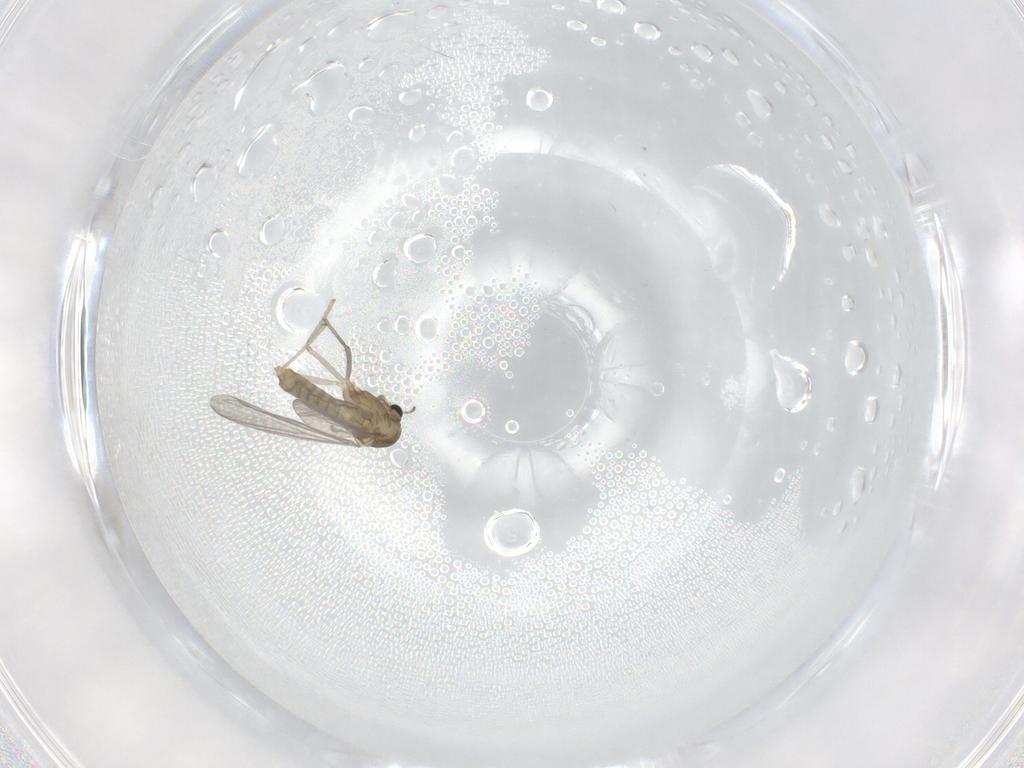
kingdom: Animalia
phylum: Arthropoda
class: Insecta
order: Diptera
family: Chironomidae
